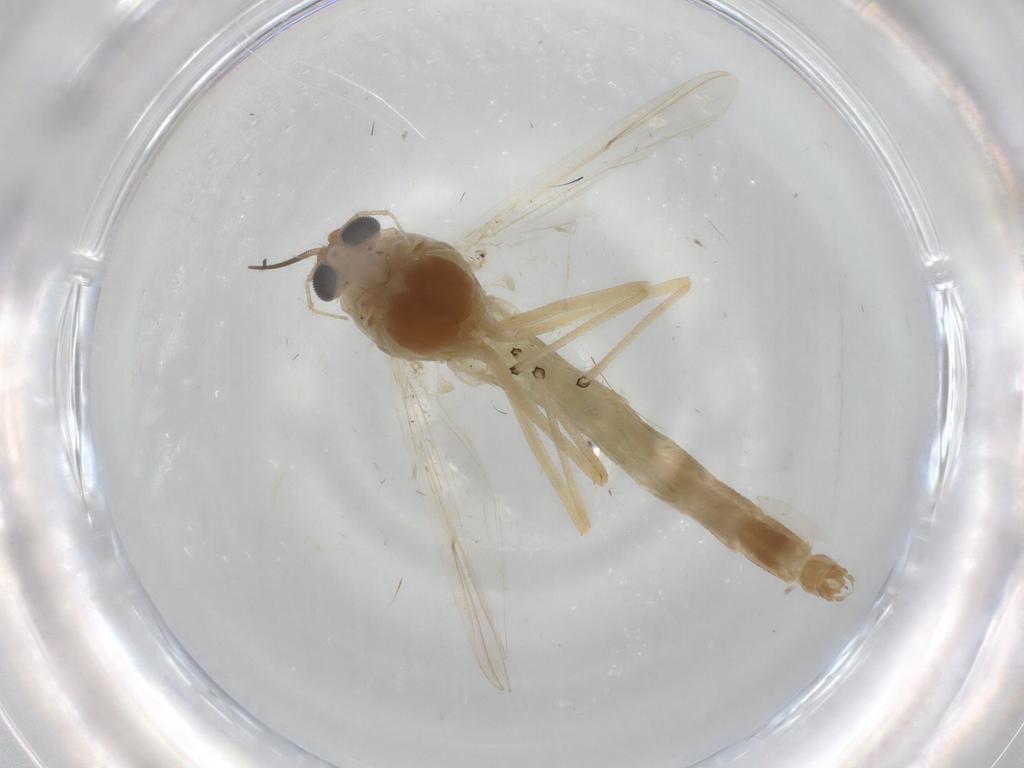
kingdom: Animalia
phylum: Arthropoda
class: Insecta
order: Diptera
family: Chironomidae
